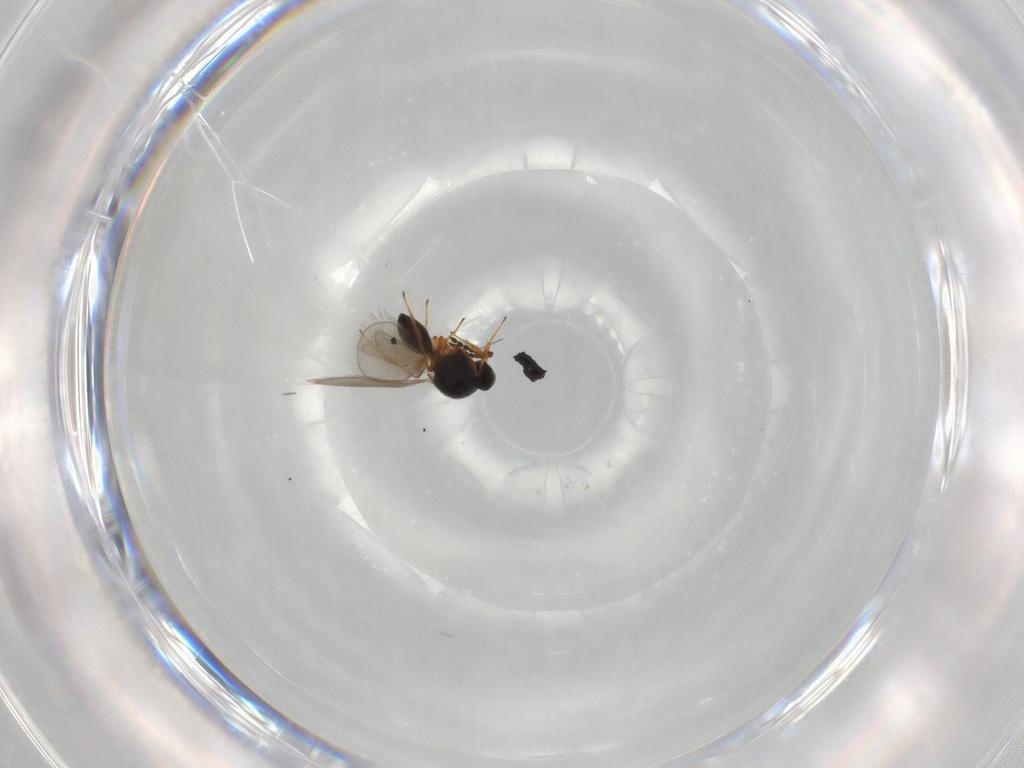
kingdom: Animalia
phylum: Arthropoda
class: Insecta
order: Hymenoptera
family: Platygastridae
